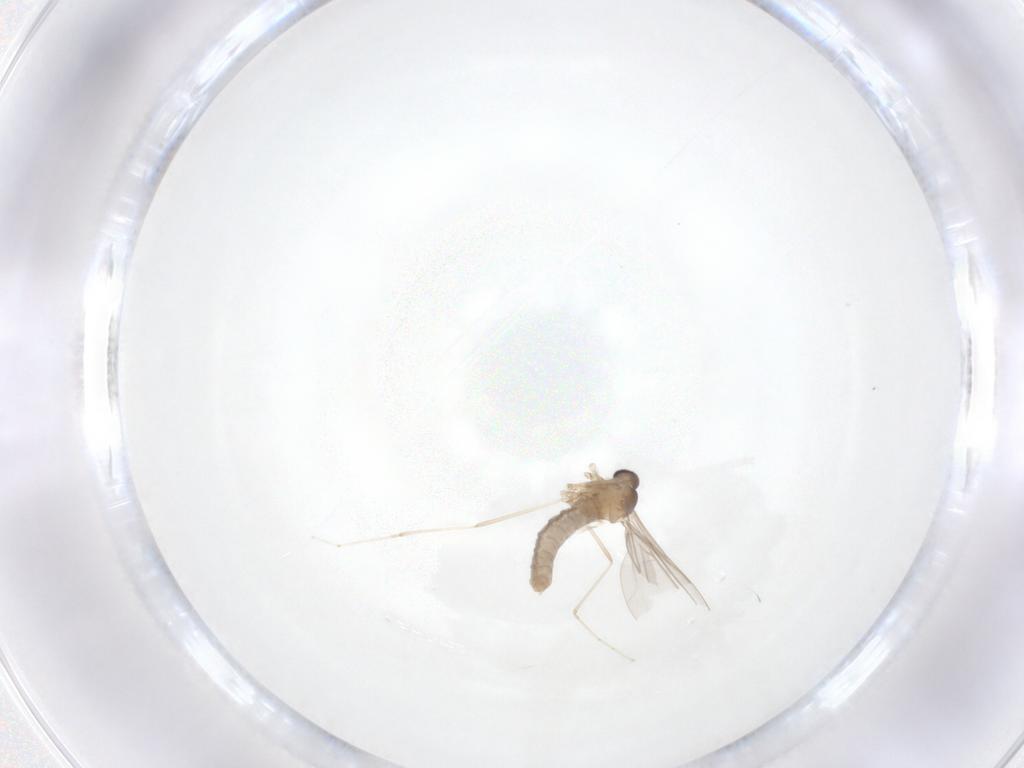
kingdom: Animalia
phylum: Arthropoda
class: Insecta
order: Diptera
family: Cecidomyiidae
